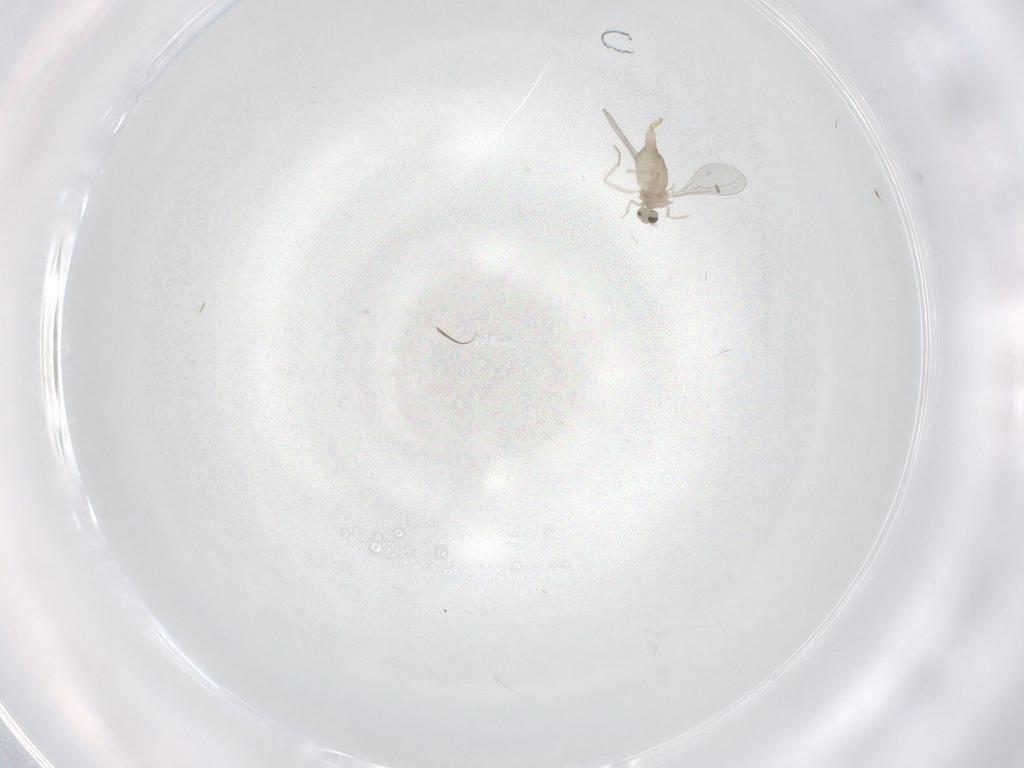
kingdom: Animalia
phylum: Arthropoda
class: Insecta
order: Diptera
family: Cecidomyiidae
